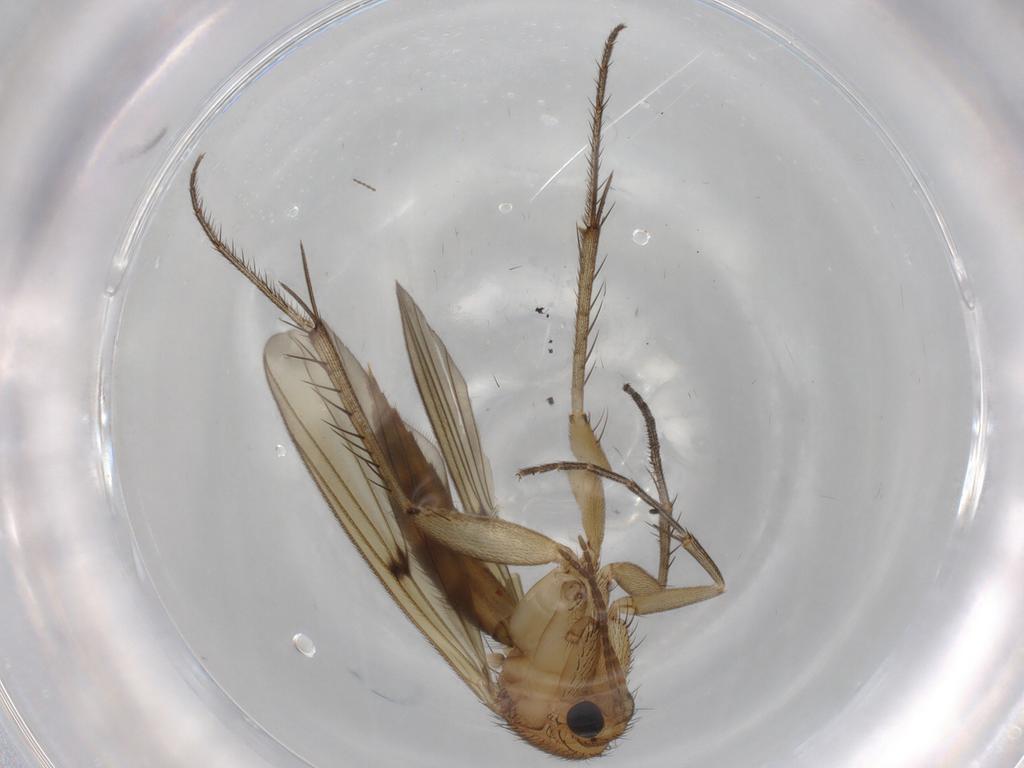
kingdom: Animalia
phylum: Arthropoda
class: Insecta
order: Diptera
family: Mycetophilidae
